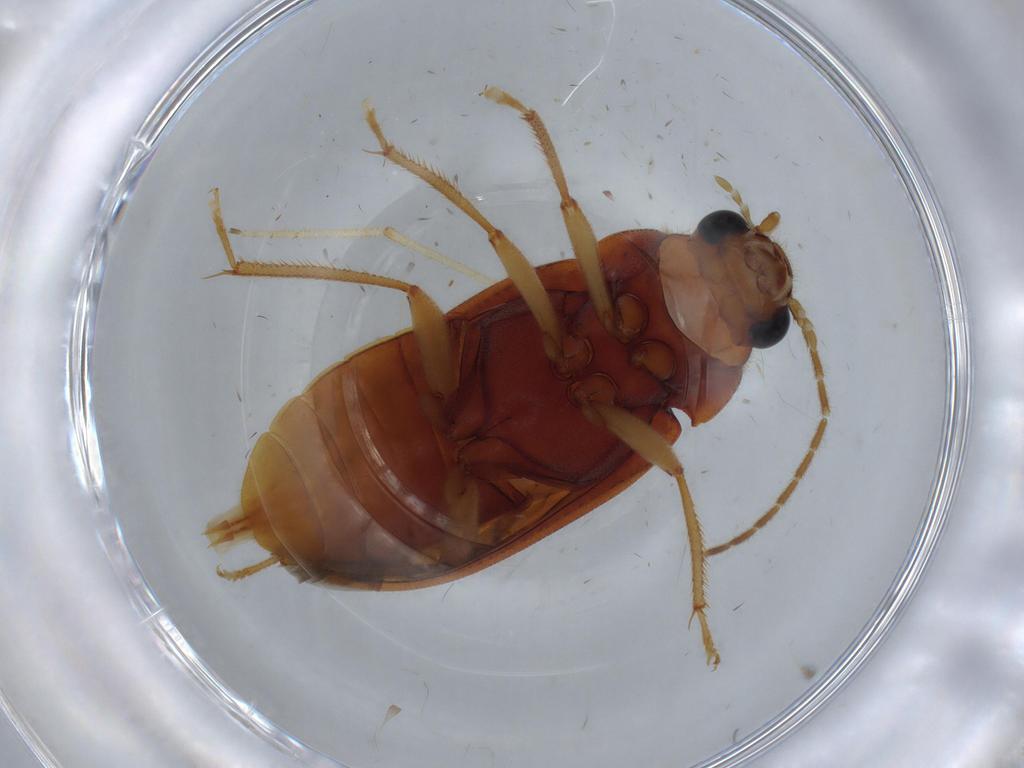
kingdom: Animalia
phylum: Arthropoda
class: Insecta
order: Coleoptera
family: Ptilodactylidae
